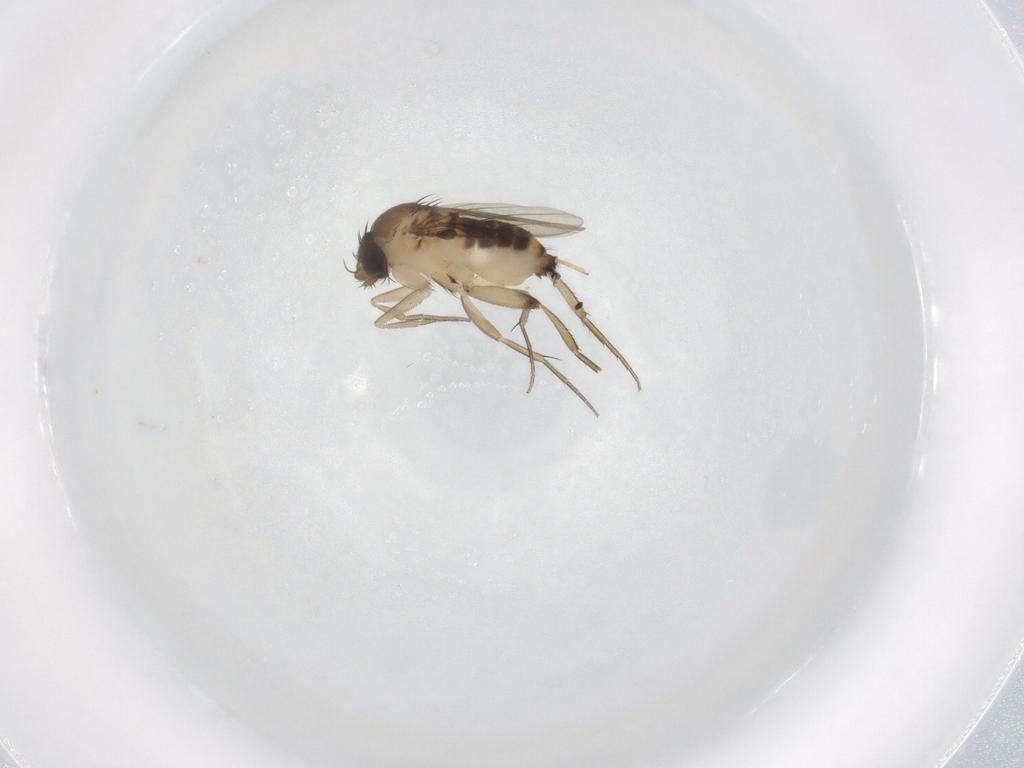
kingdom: Animalia
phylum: Arthropoda
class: Insecta
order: Diptera
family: Phoridae
